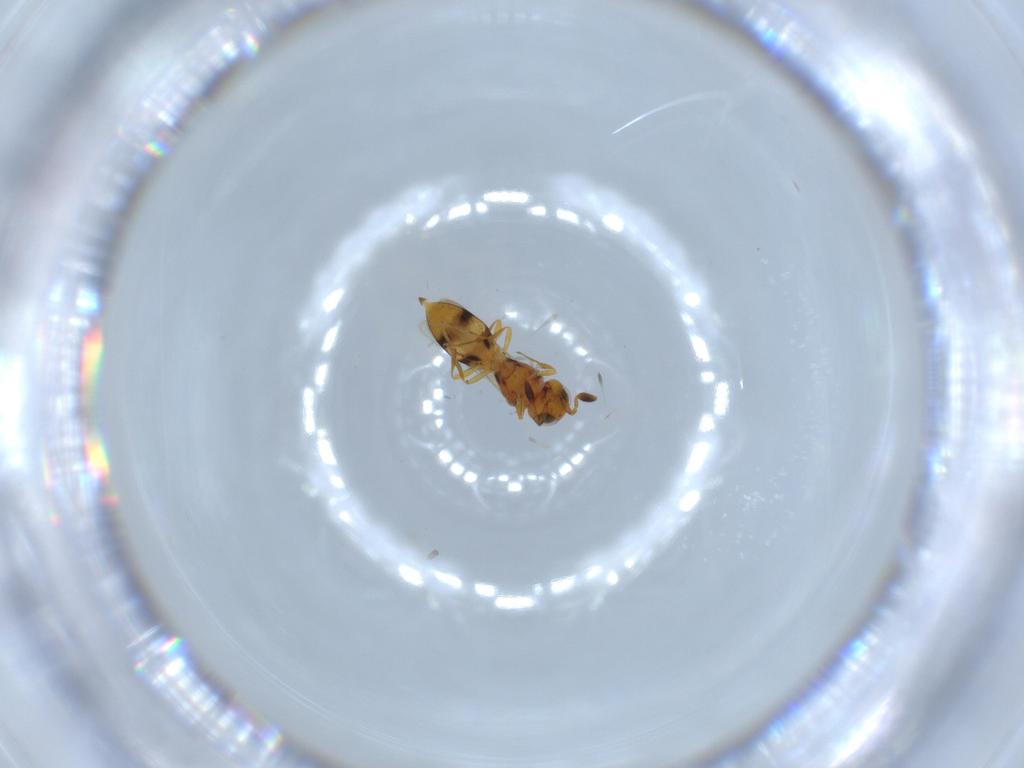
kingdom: Animalia
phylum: Arthropoda
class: Insecta
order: Hymenoptera
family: Scelionidae
